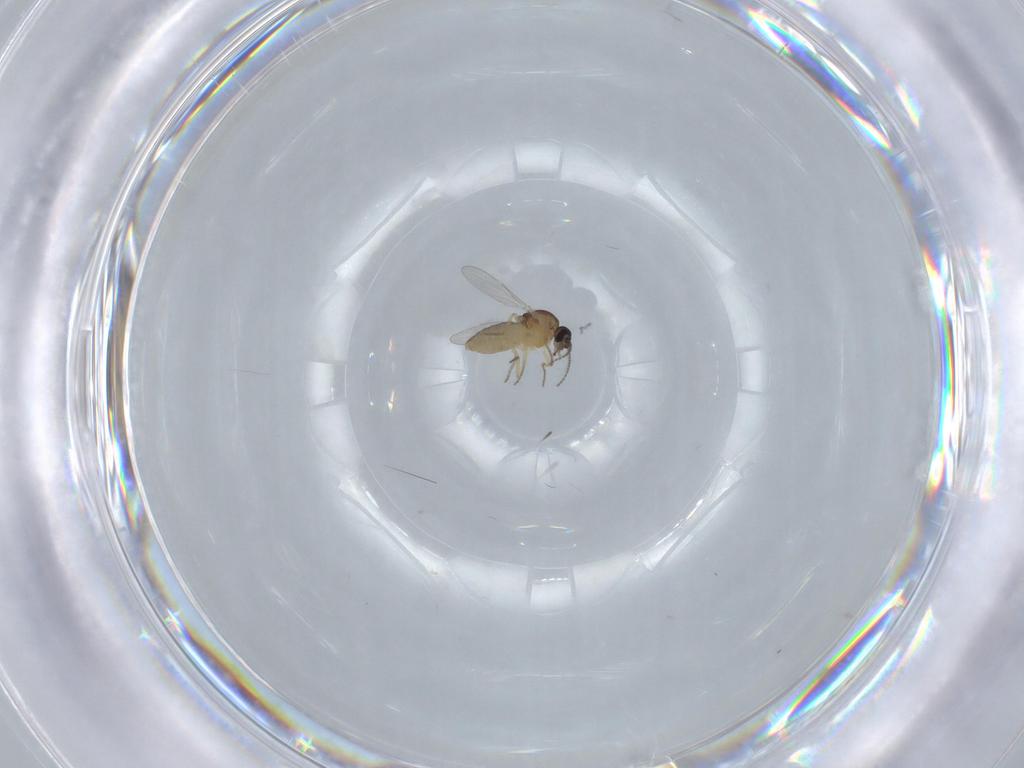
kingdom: Animalia
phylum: Arthropoda
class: Insecta
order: Diptera
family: Ceratopogonidae
